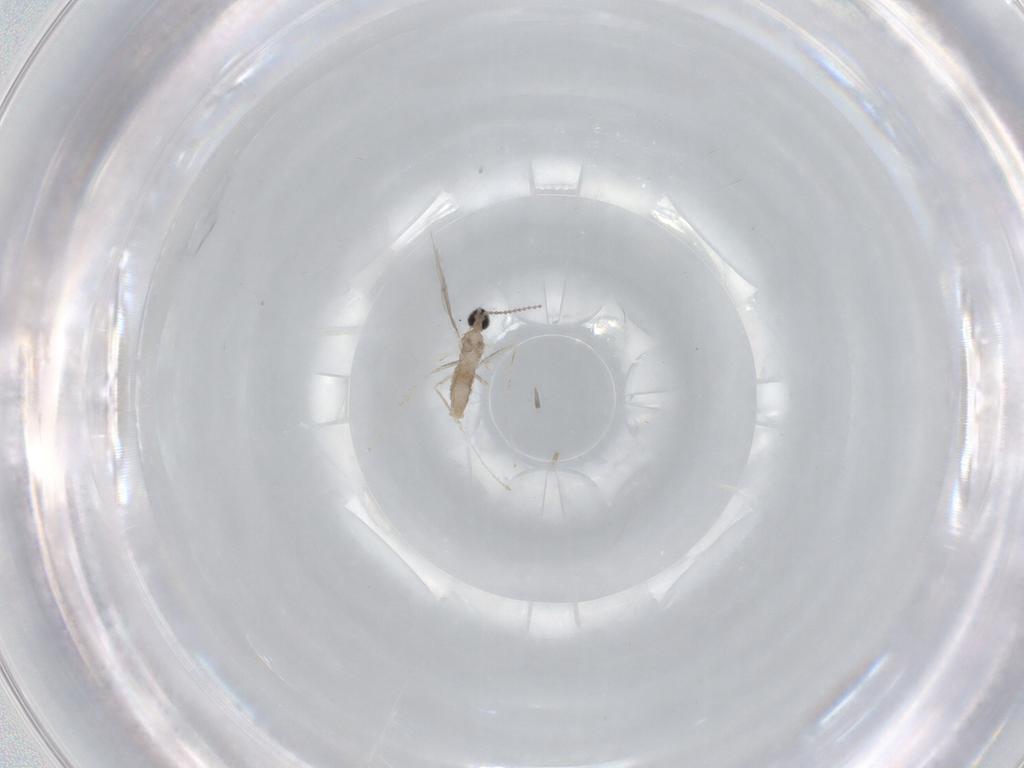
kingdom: Animalia
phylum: Arthropoda
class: Insecta
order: Diptera
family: Cecidomyiidae
